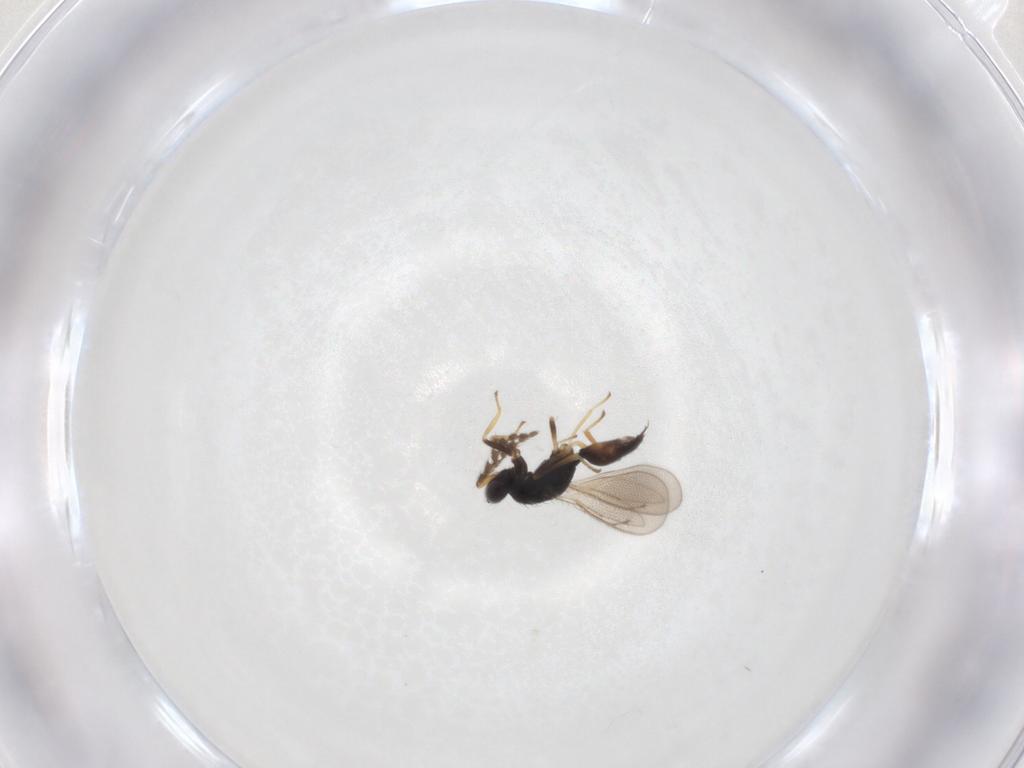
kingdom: Animalia
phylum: Arthropoda
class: Insecta
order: Hymenoptera
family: Eulophidae
